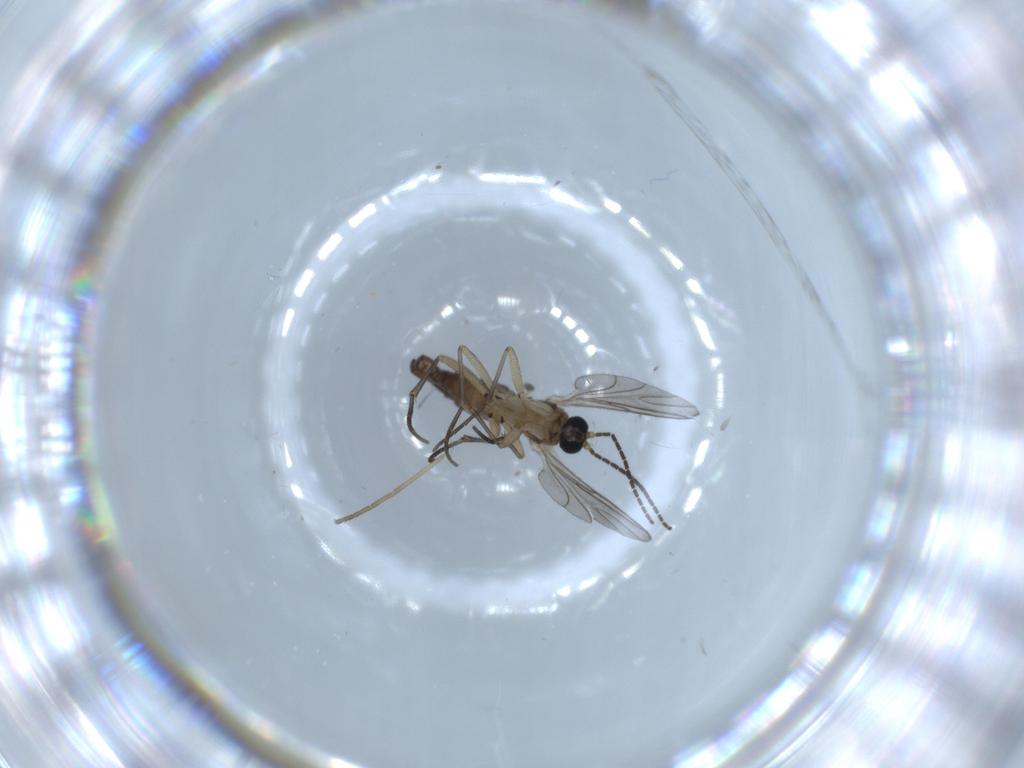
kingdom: Animalia
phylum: Arthropoda
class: Insecta
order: Diptera
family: Sciaridae
